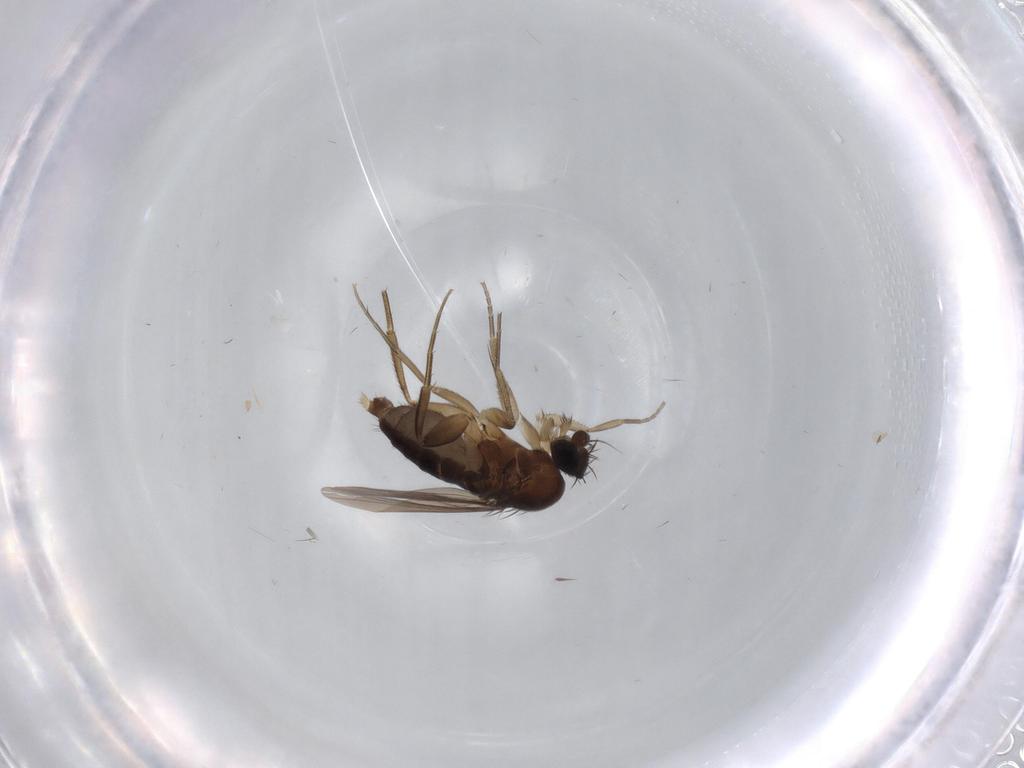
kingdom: Animalia
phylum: Arthropoda
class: Insecta
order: Diptera
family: Phoridae
